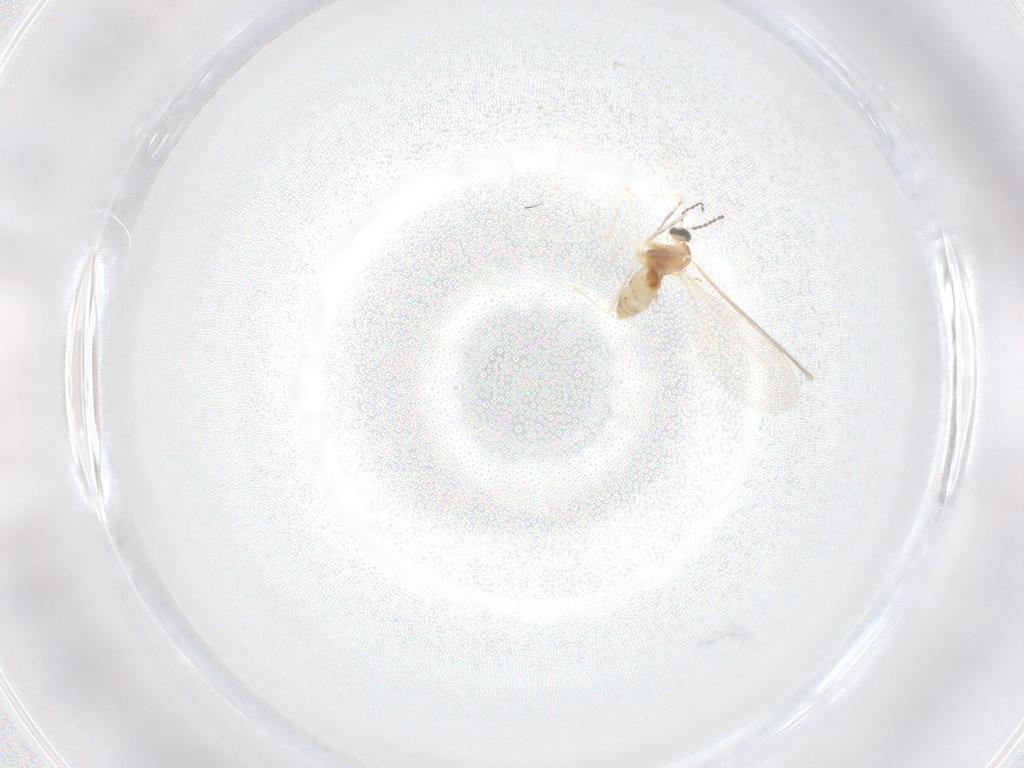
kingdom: Animalia
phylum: Arthropoda
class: Insecta
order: Diptera
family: Cecidomyiidae
